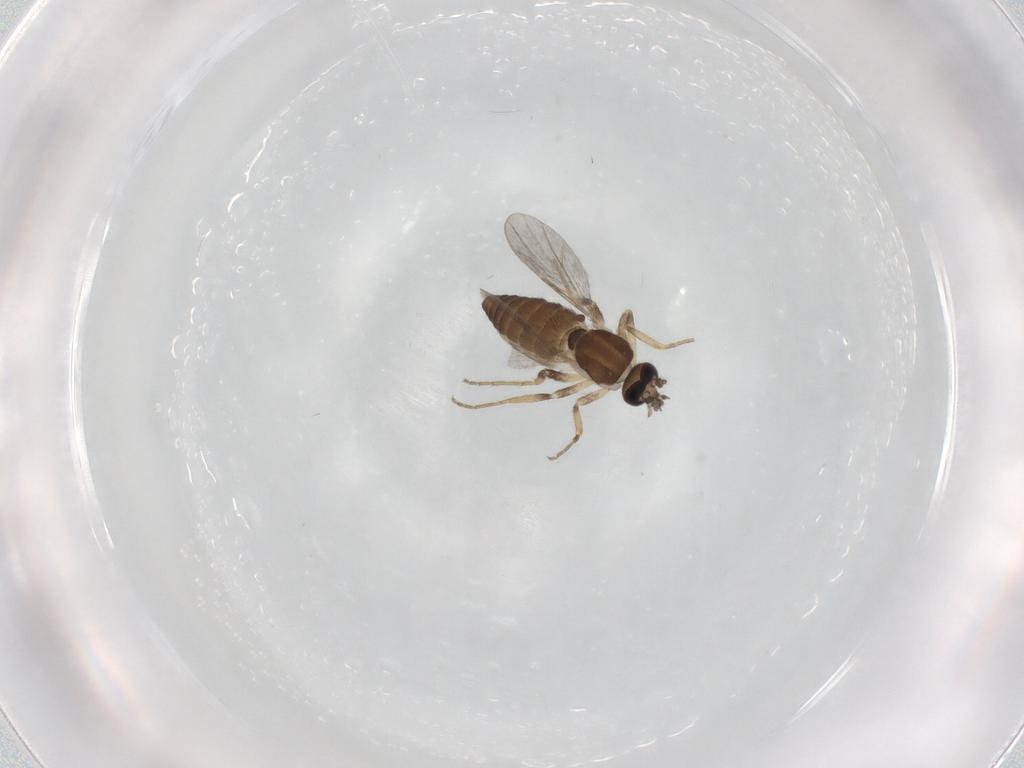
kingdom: Animalia
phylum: Arthropoda
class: Insecta
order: Diptera
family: Ceratopogonidae
